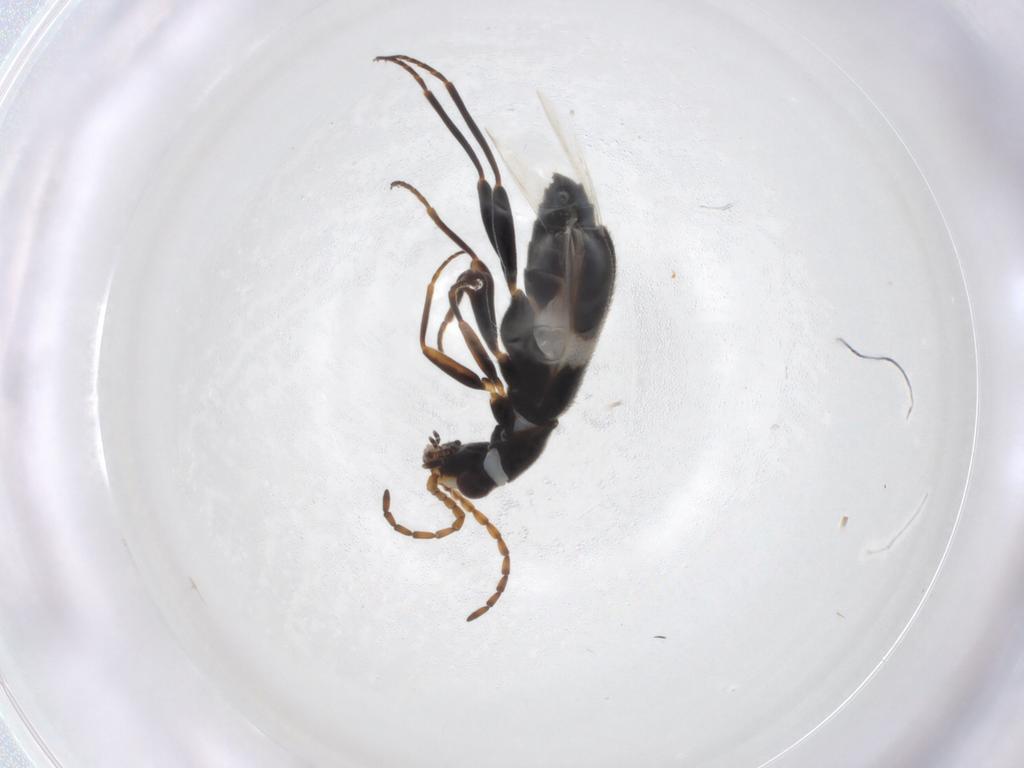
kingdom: Animalia
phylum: Arthropoda
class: Insecta
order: Coleoptera
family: Melyridae
